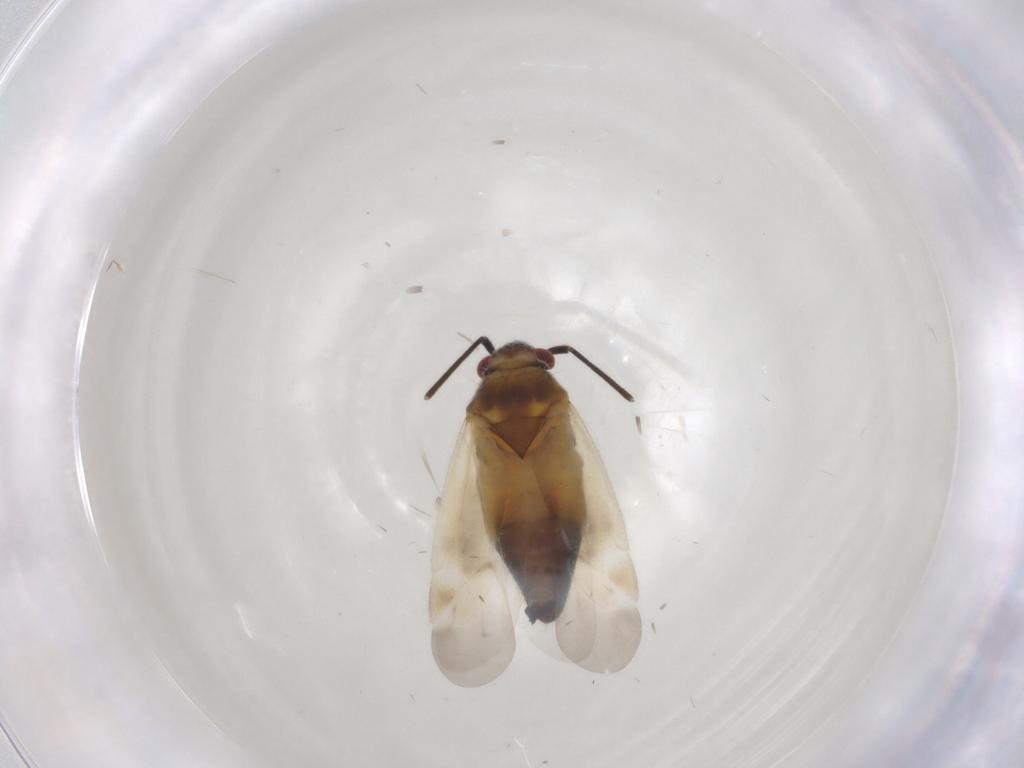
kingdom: Animalia
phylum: Arthropoda
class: Insecta
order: Hemiptera
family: Miridae
